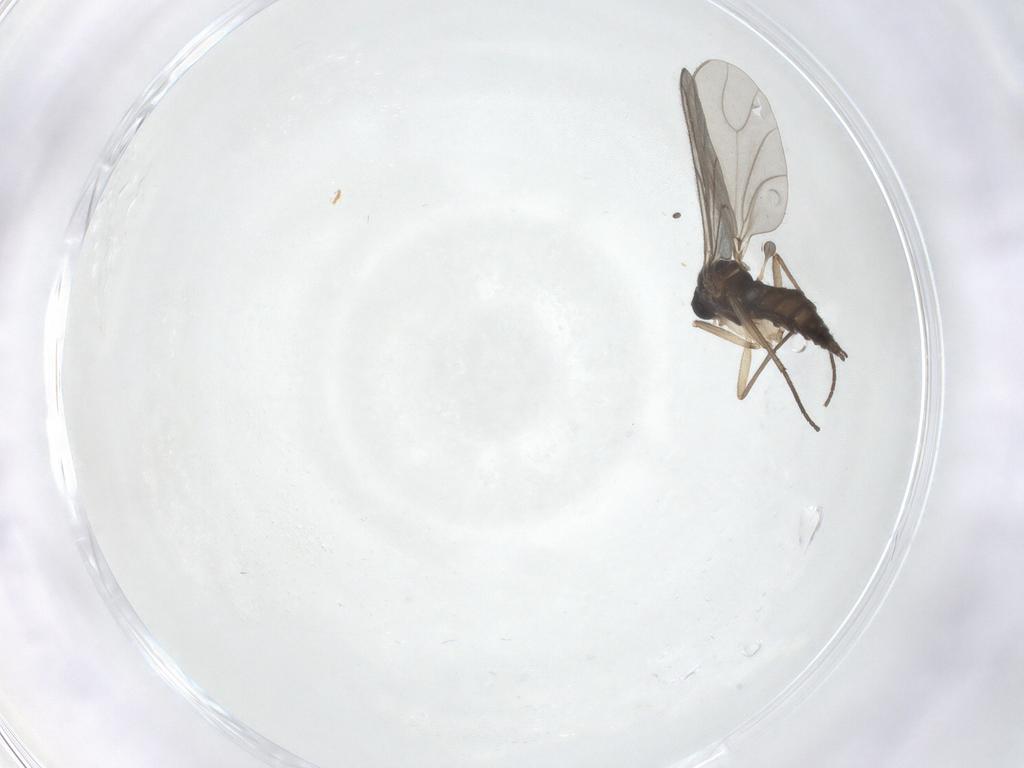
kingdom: Animalia
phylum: Arthropoda
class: Insecta
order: Diptera
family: Sciaridae
